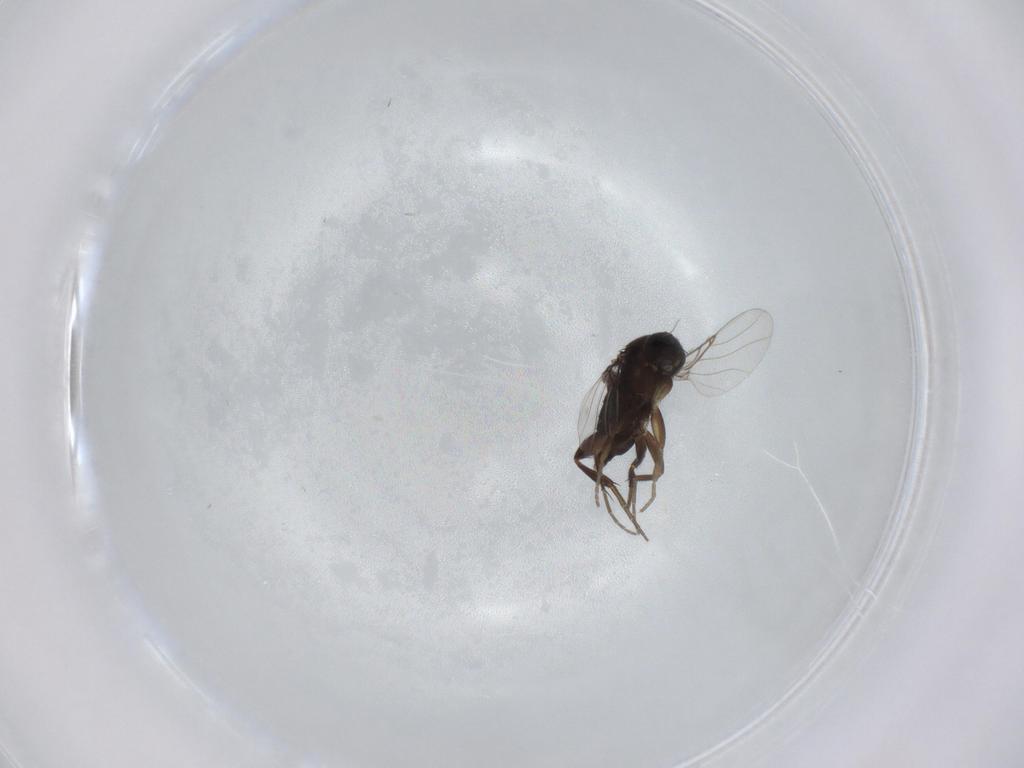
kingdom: Animalia
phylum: Arthropoda
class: Insecta
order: Diptera
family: Phoridae
